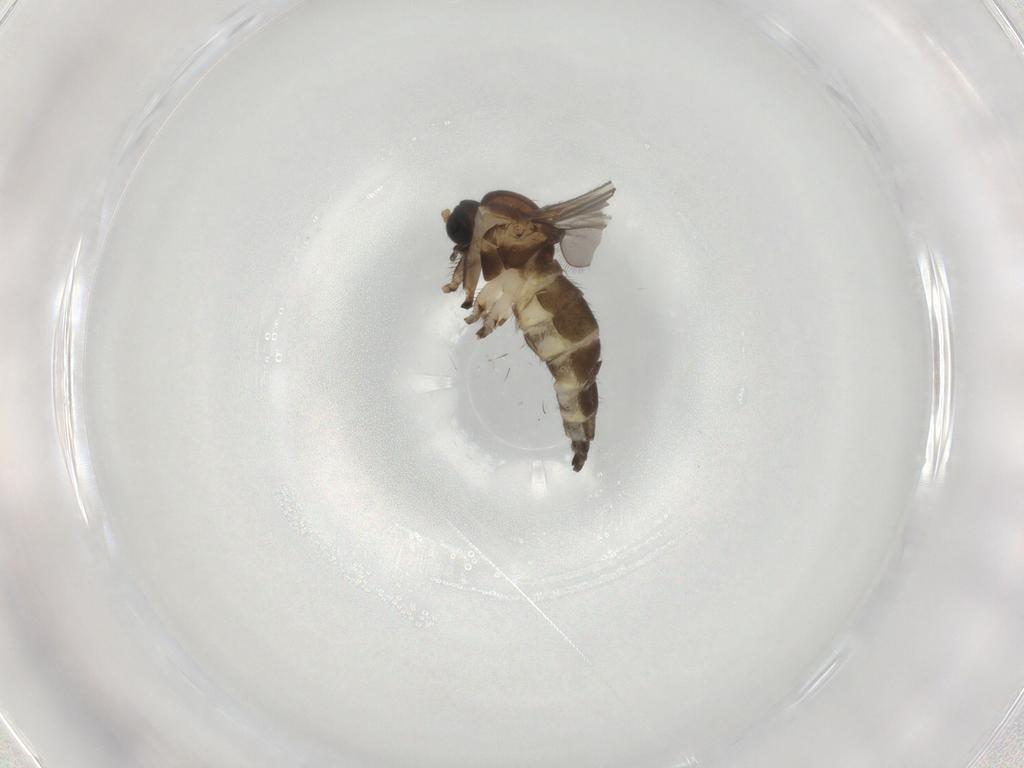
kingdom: Animalia
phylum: Arthropoda
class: Insecta
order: Diptera
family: Sciaridae
